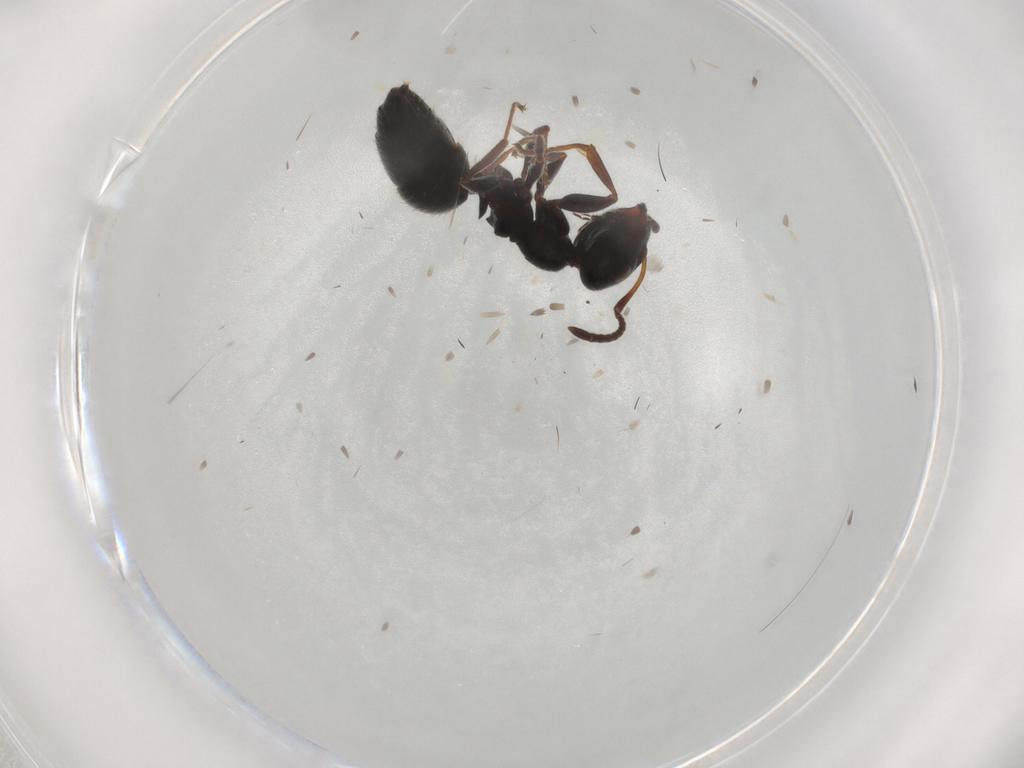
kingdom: Animalia
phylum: Arthropoda
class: Insecta
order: Hymenoptera
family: Formicidae
